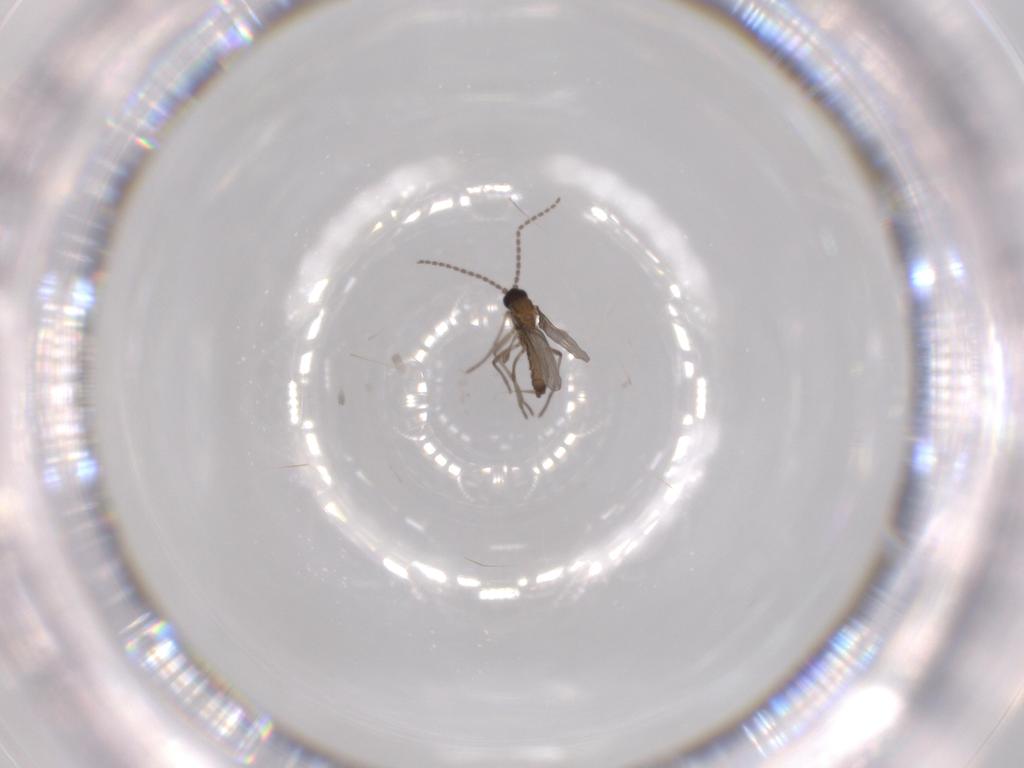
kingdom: Animalia
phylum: Arthropoda
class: Insecta
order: Diptera
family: Sciaridae
